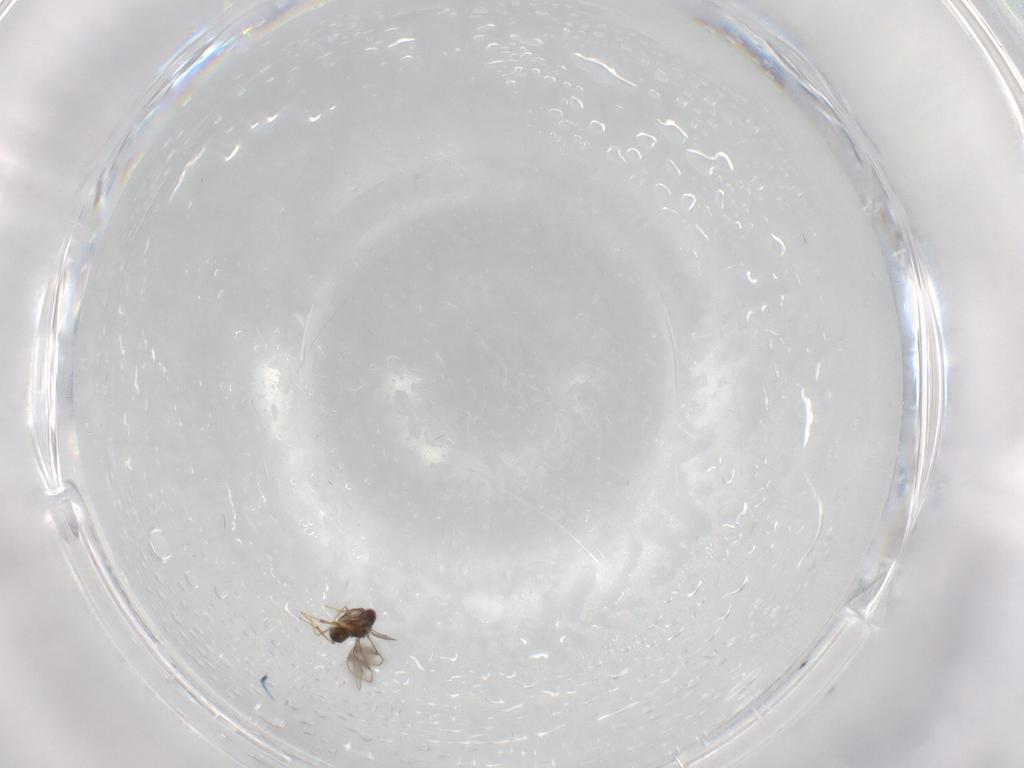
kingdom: Animalia
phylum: Arthropoda
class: Insecta
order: Hymenoptera
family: Pteromalidae
